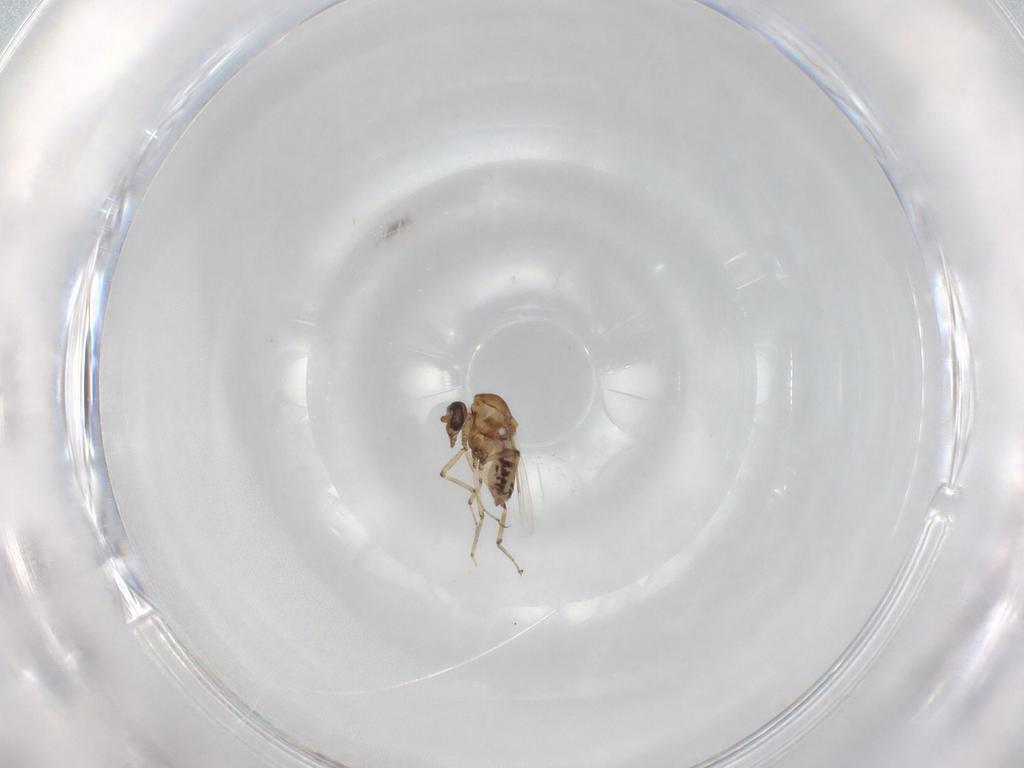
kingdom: Animalia
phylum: Arthropoda
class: Insecta
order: Diptera
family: Ceratopogonidae
